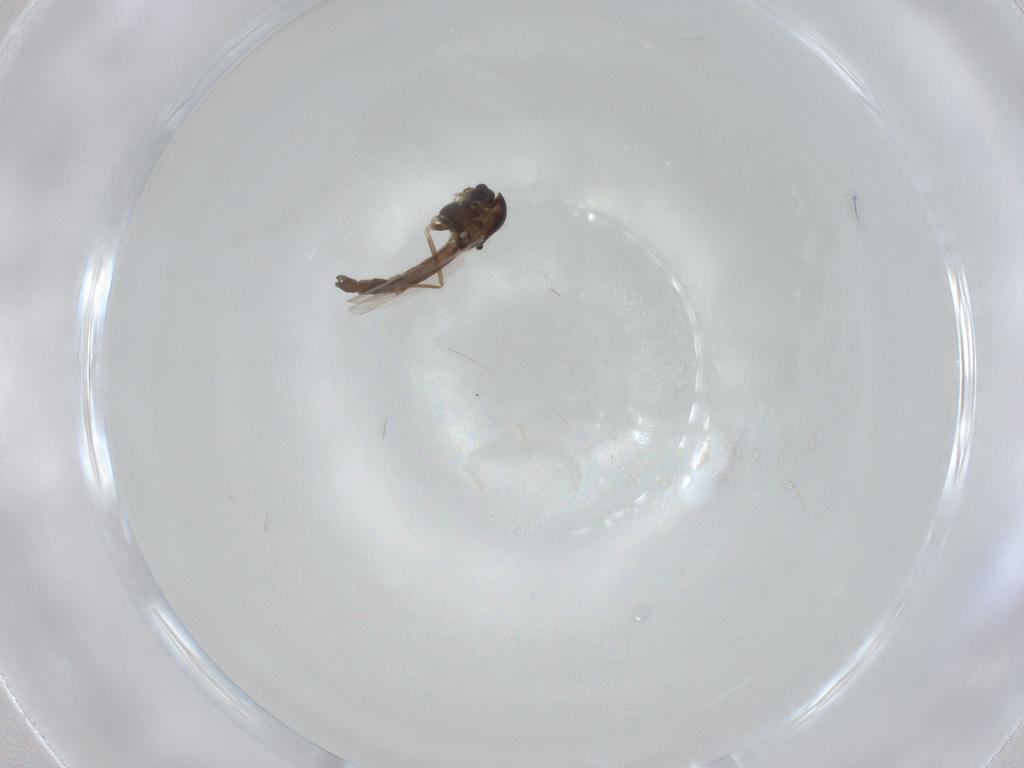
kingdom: Animalia
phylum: Arthropoda
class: Insecta
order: Diptera
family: Chironomidae
